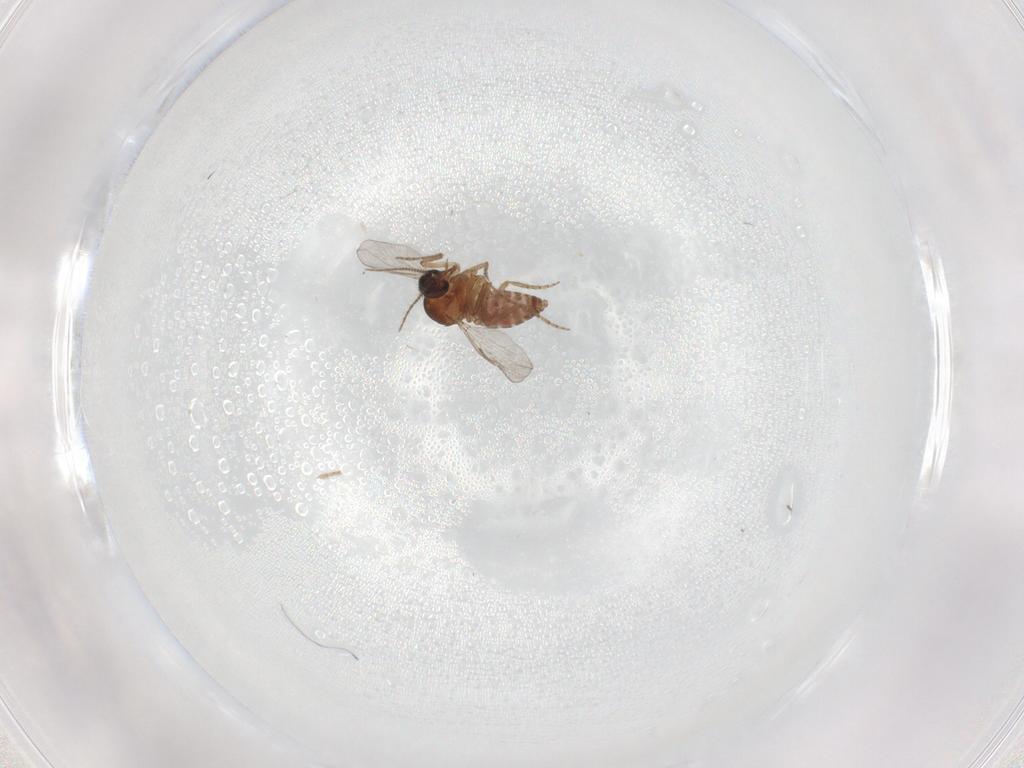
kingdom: Animalia
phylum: Arthropoda
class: Insecta
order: Diptera
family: Ceratopogonidae
